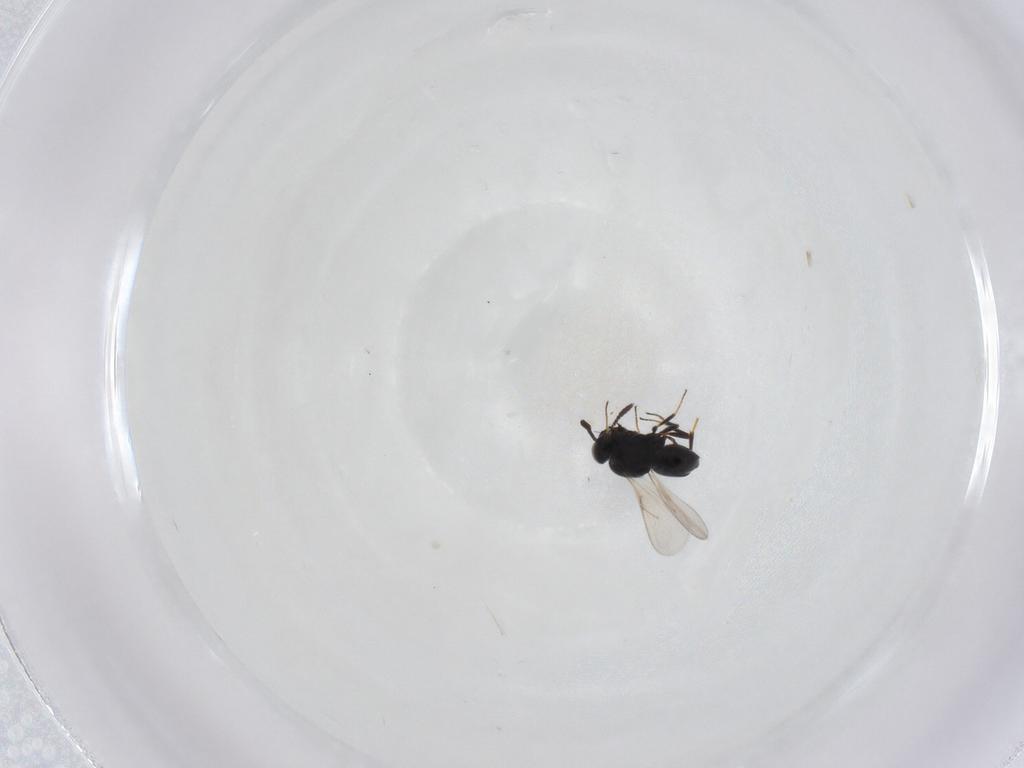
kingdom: Animalia
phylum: Arthropoda
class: Insecta
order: Hymenoptera
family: Scelionidae
